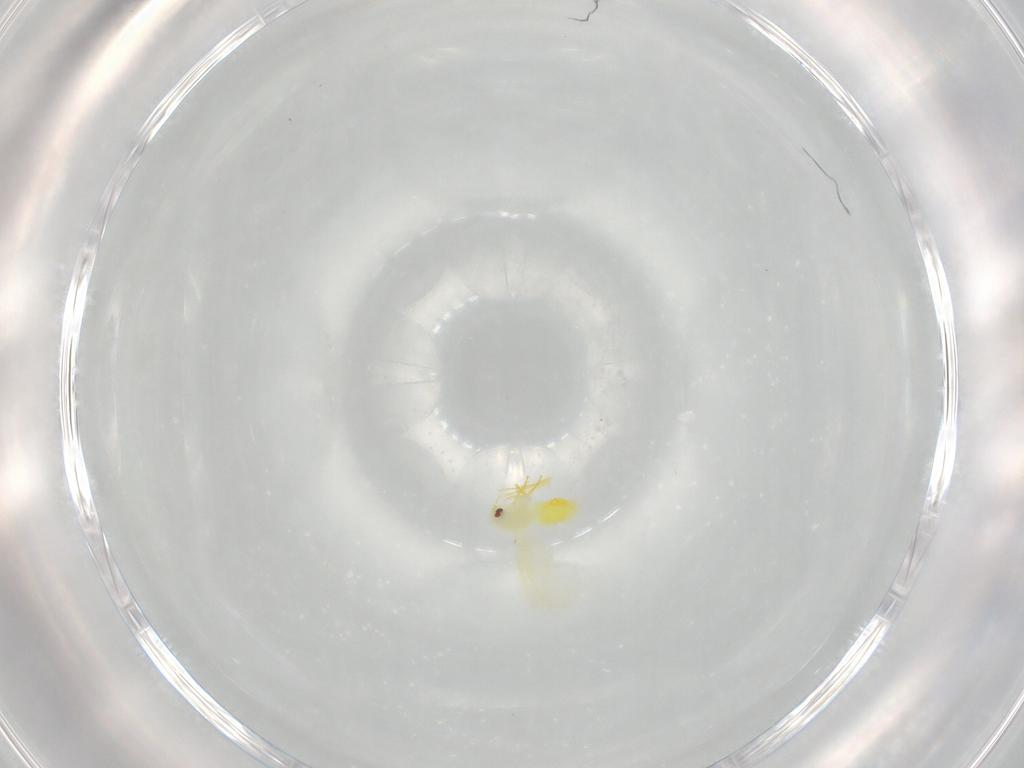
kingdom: Animalia
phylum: Arthropoda
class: Insecta
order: Hemiptera
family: Aleyrodidae
